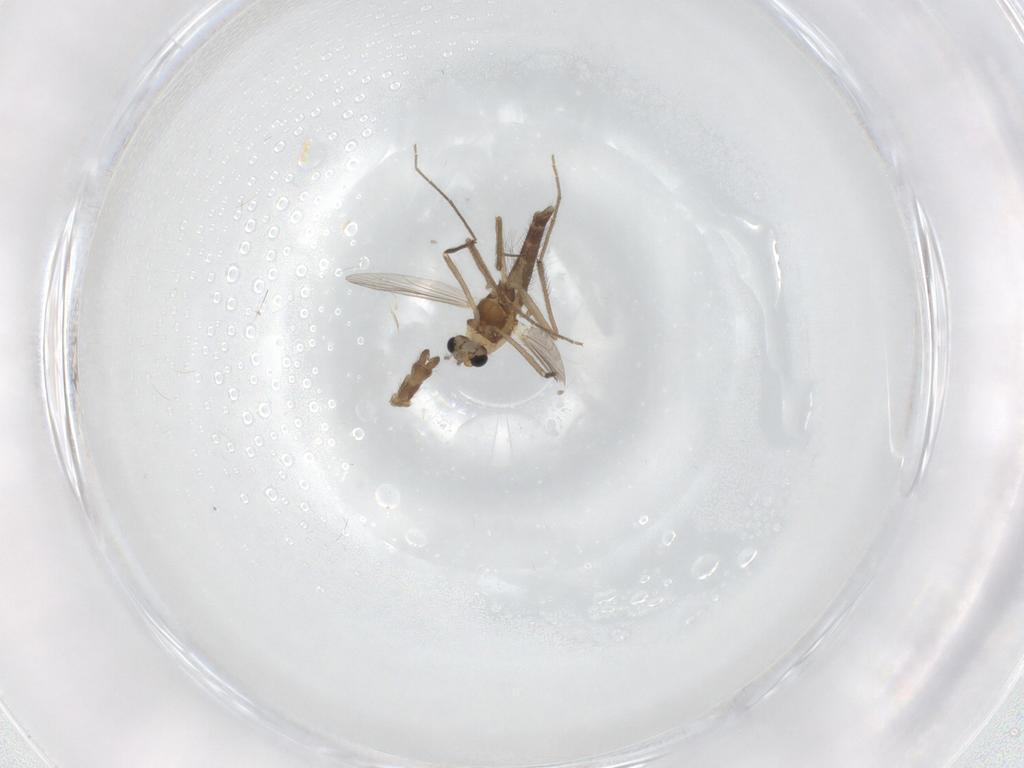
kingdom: Animalia
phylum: Arthropoda
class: Insecta
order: Diptera
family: Chironomidae
